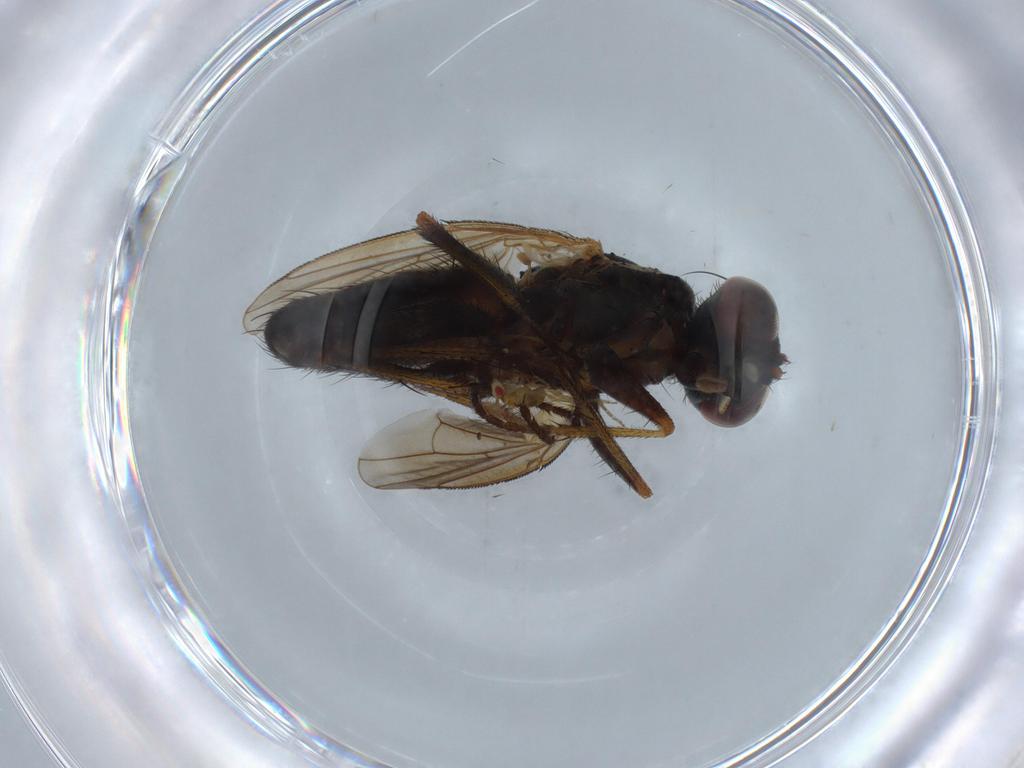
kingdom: Animalia
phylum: Arthropoda
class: Insecta
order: Diptera
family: Muscidae
